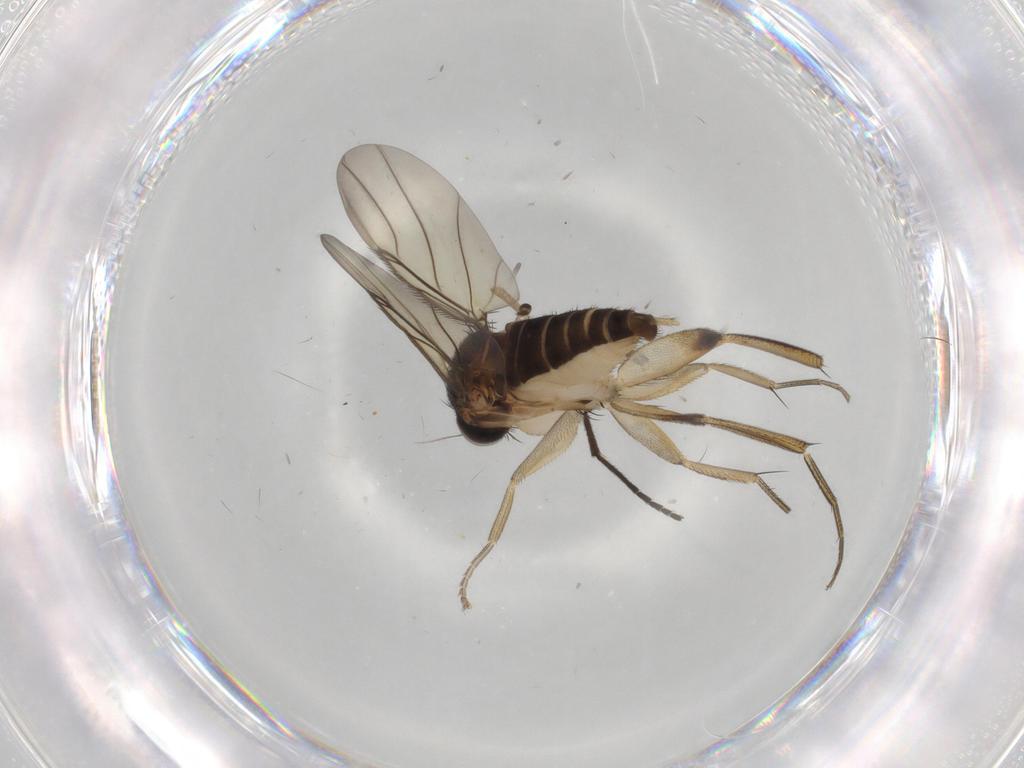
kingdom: Animalia
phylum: Arthropoda
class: Insecta
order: Diptera
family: Phoridae
